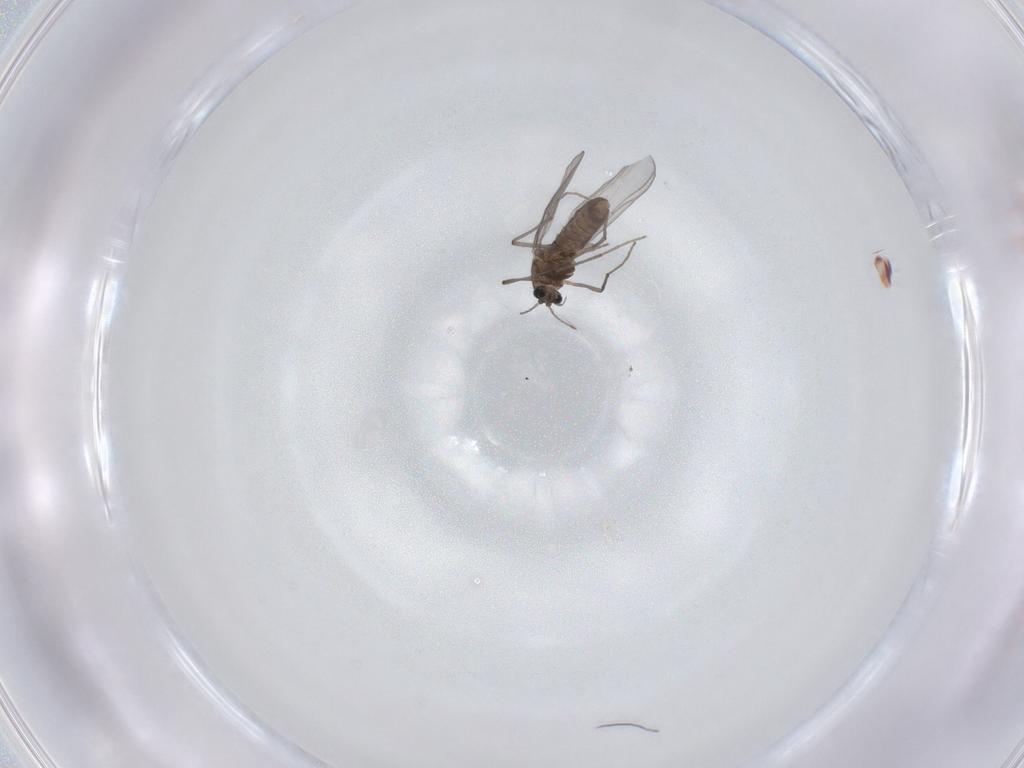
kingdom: Animalia
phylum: Arthropoda
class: Insecta
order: Diptera
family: Chironomidae
